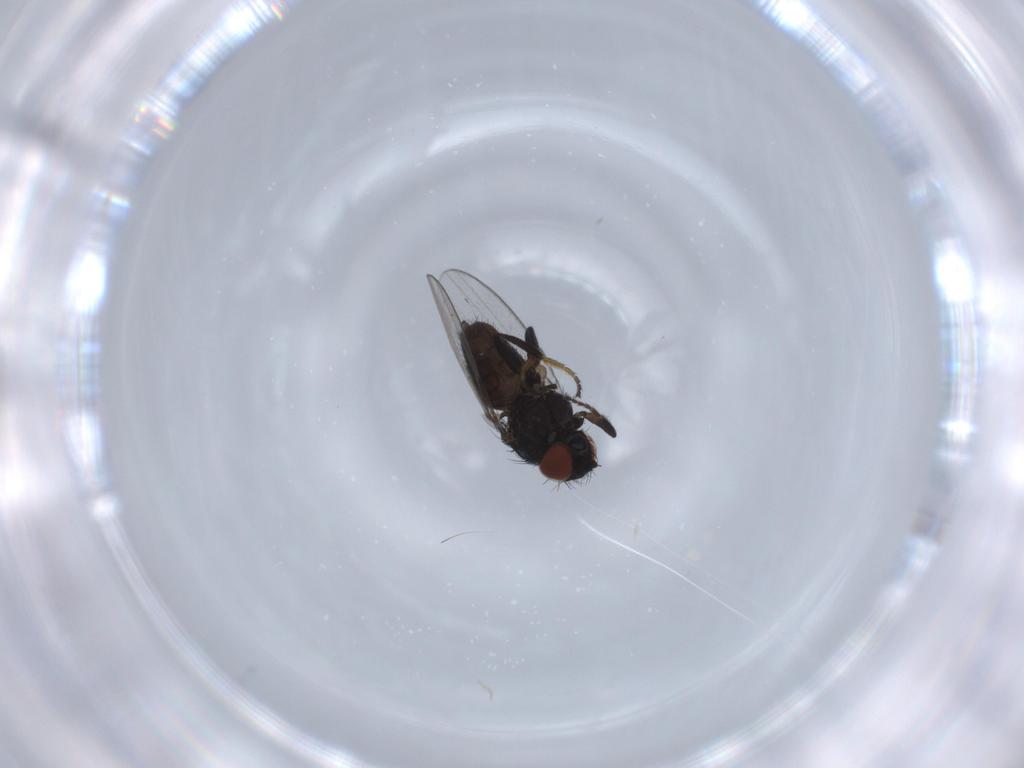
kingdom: Animalia
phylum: Arthropoda
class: Insecta
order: Diptera
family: Milichiidae
